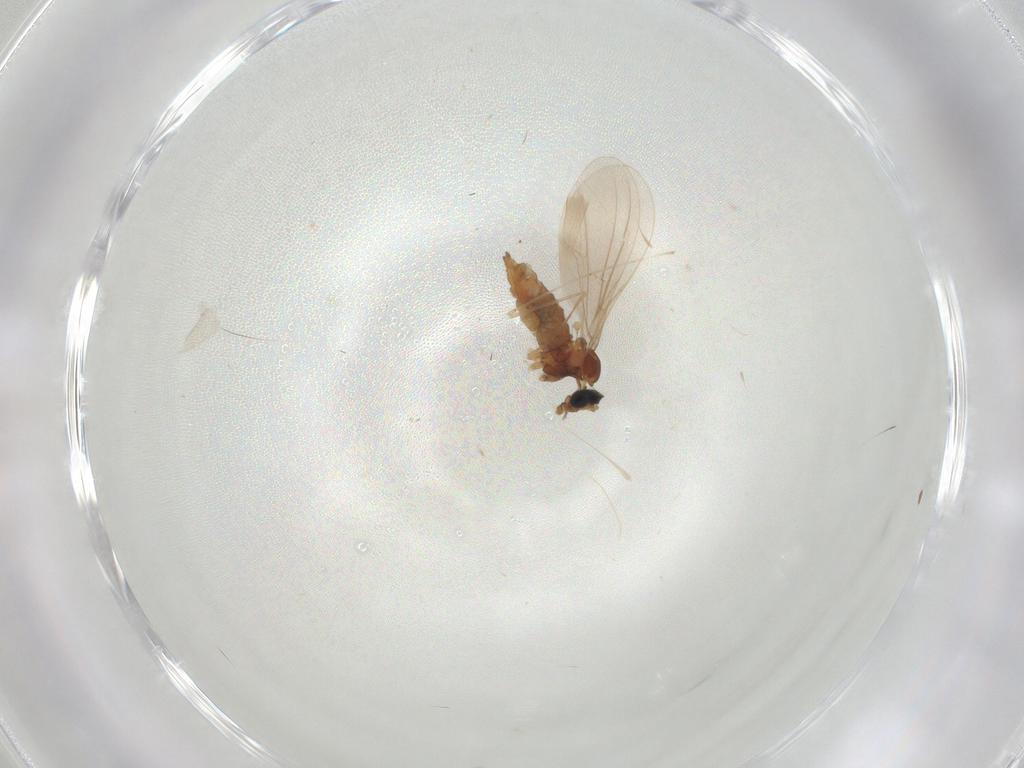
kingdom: Animalia
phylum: Arthropoda
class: Insecta
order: Diptera
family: Cecidomyiidae
